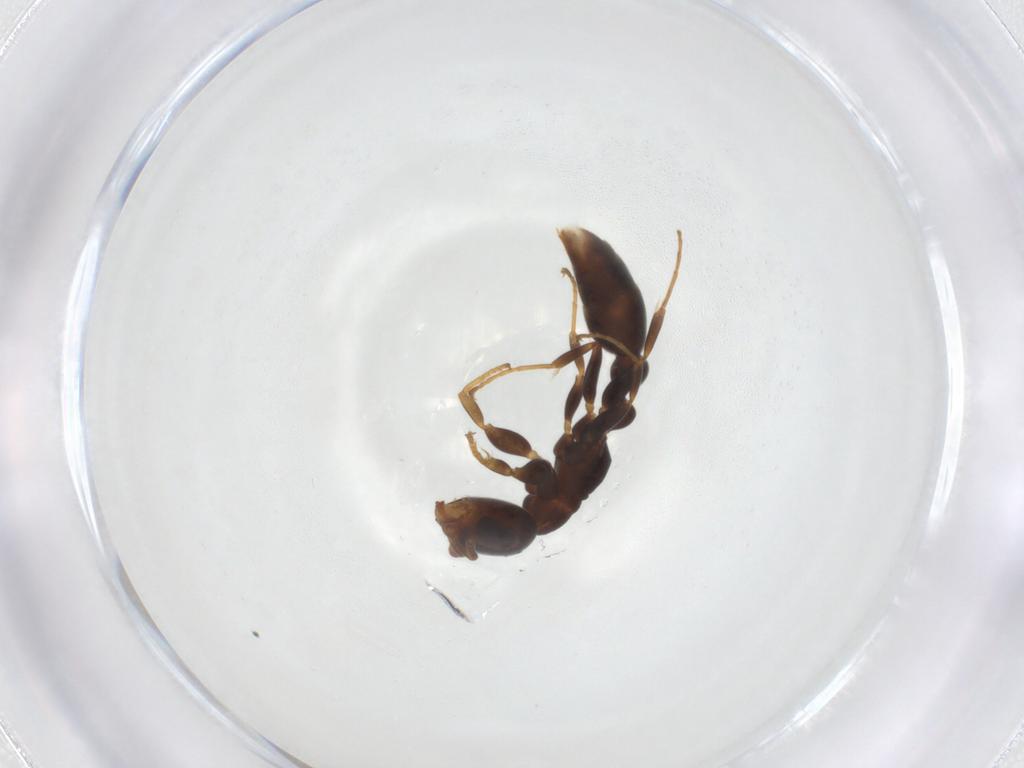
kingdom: Animalia
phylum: Arthropoda
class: Insecta
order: Hymenoptera
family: Formicidae
